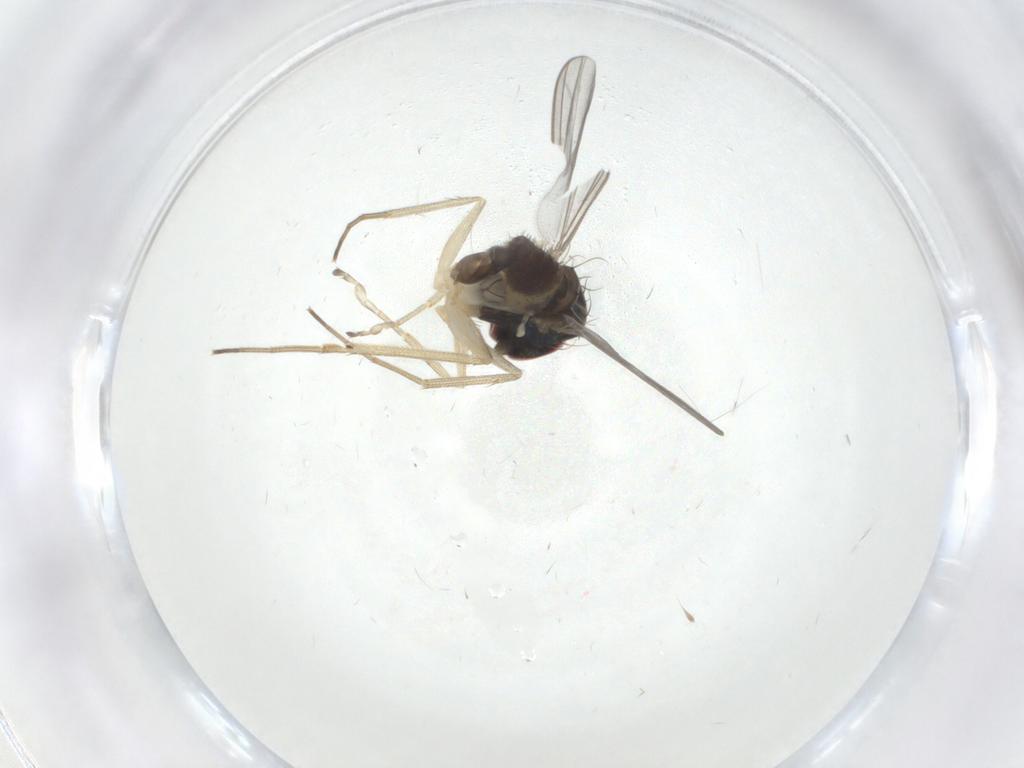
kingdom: Animalia
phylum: Arthropoda
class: Insecta
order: Diptera
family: Dolichopodidae
